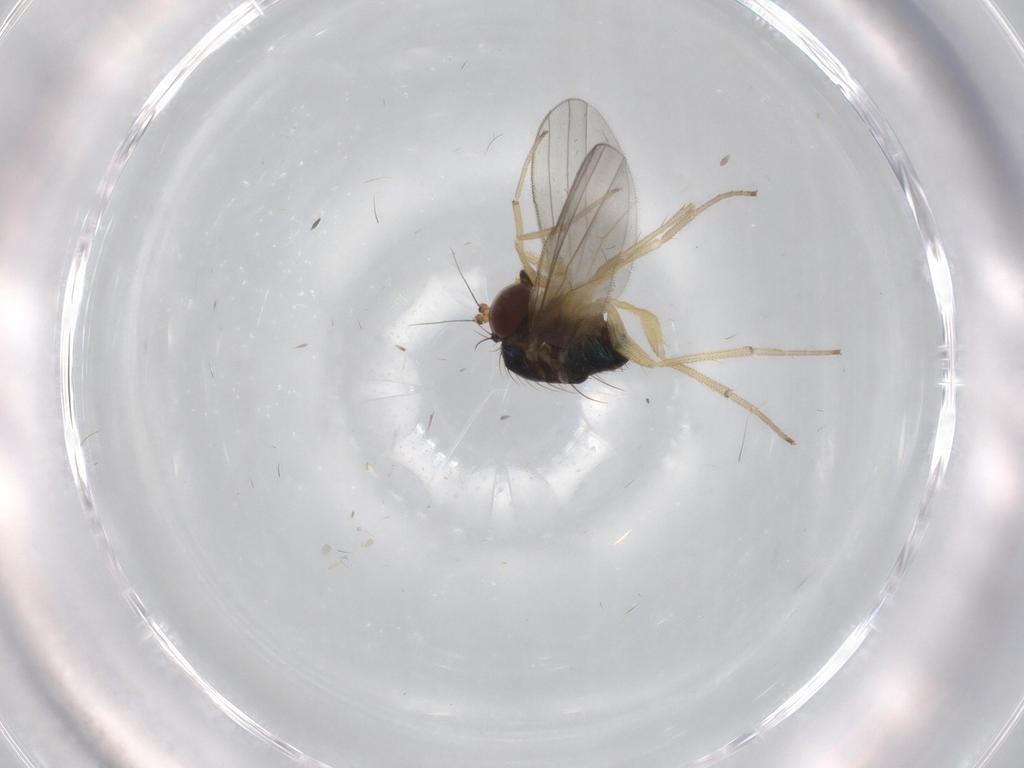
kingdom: Animalia
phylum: Arthropoda
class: Insecta
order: Diptera
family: Dolichopodidae
